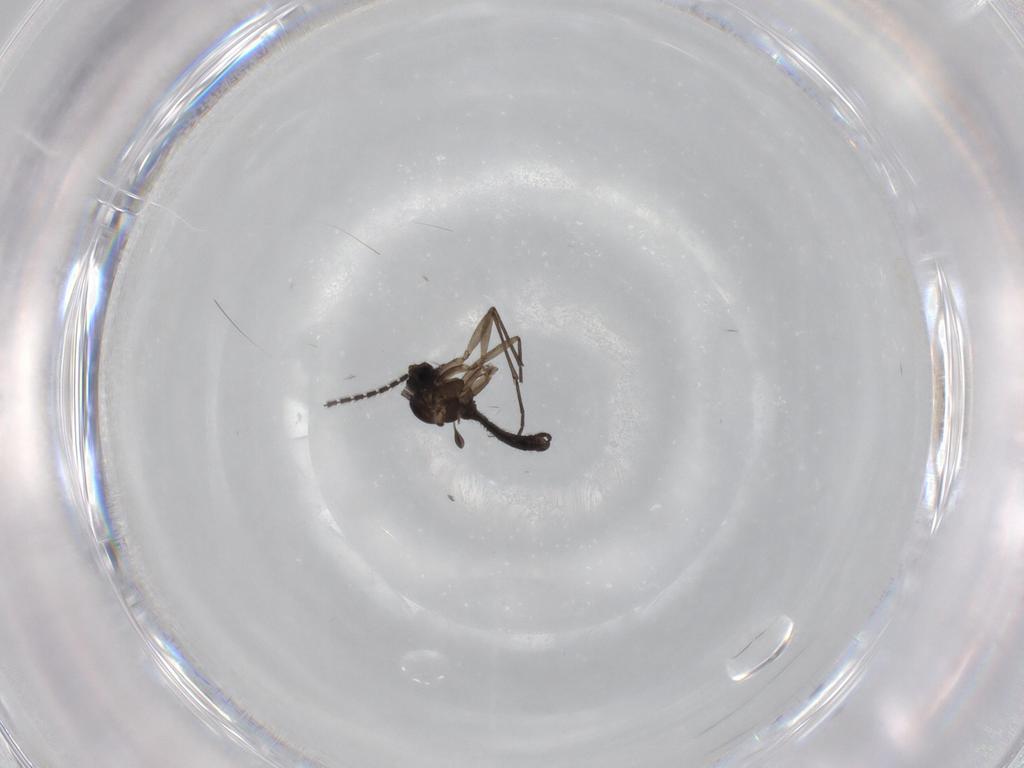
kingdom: Animalia
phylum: Arthropoda
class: Insecta
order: Diptera
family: Sciaridae
